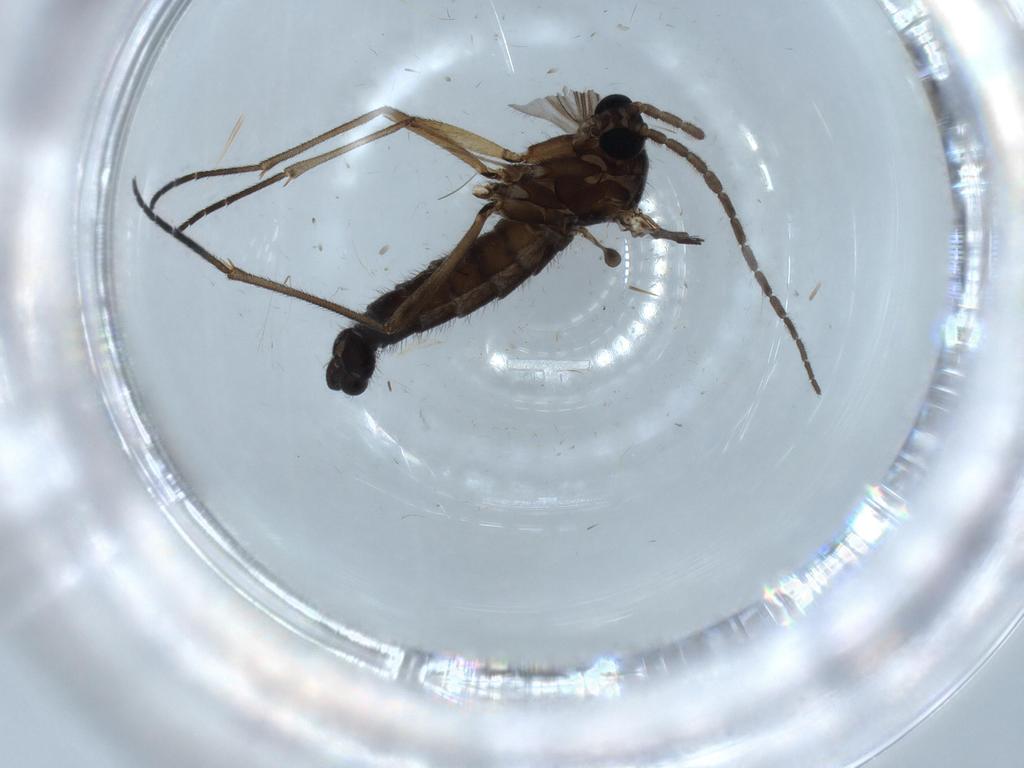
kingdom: Animalia
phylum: Arthropoda
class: Insecta
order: Diptera
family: Sciaridae
